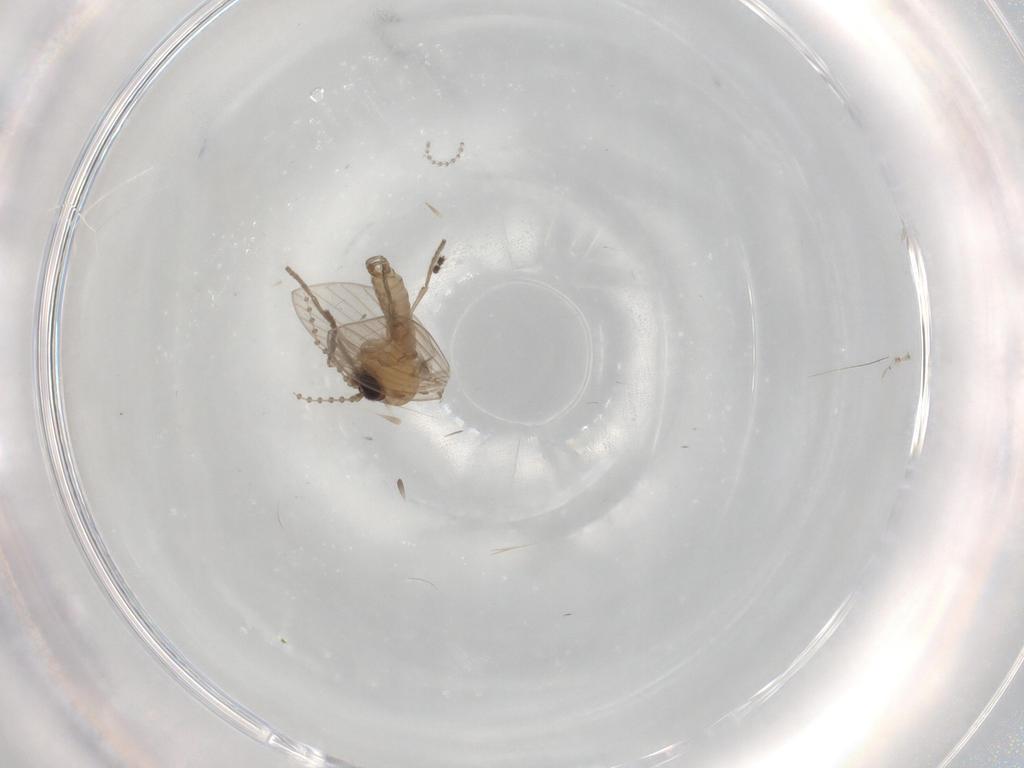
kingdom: Animalia
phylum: Arthropoda
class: Insecta
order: Diptera
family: Psychodidae
